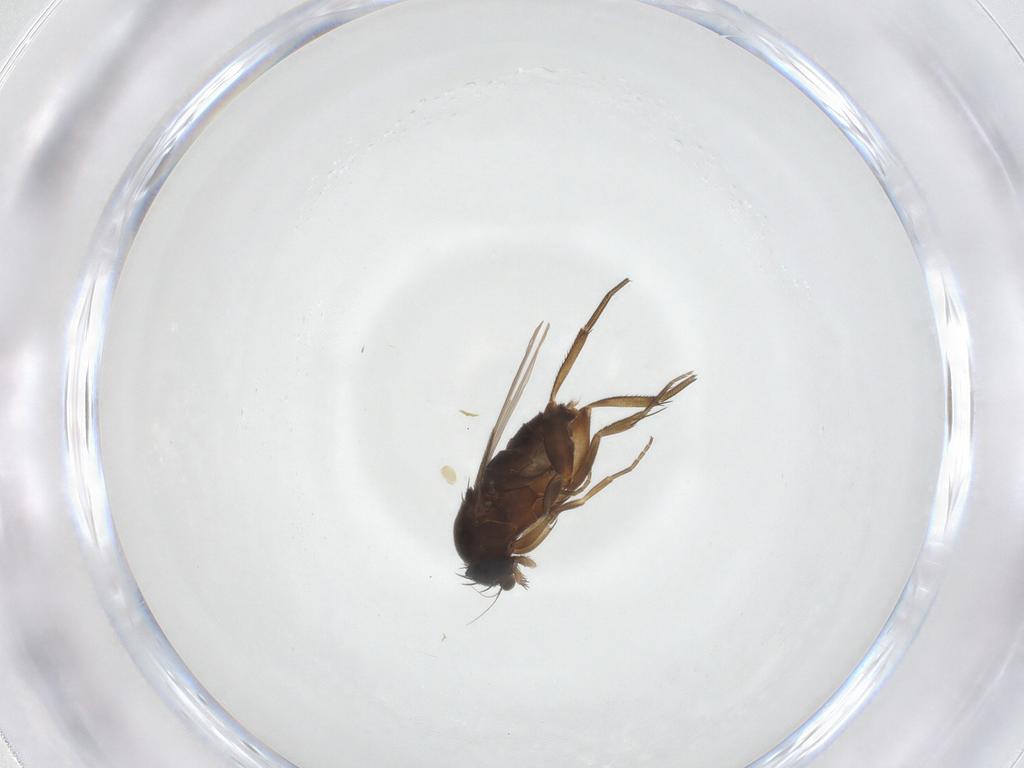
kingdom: Animalia
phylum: Arthropoda
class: Insecta
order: Diptera
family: Phoridae
